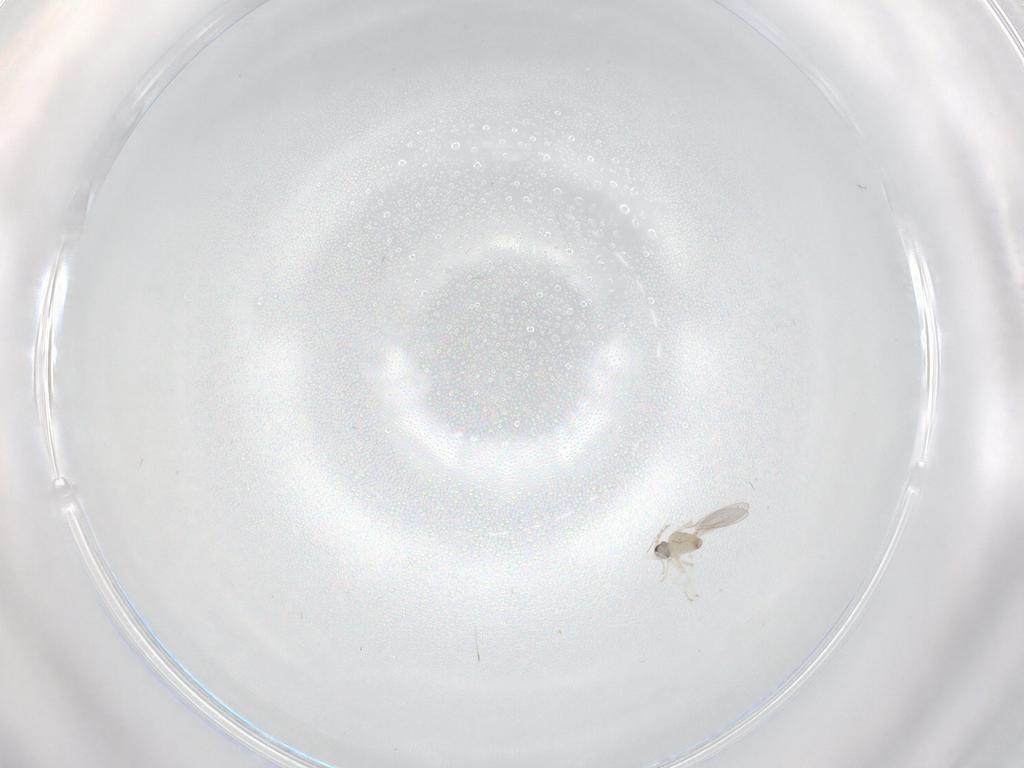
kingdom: Animalia
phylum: Arthropoda
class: Insecta
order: Diptera
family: Cecidomyiidae
